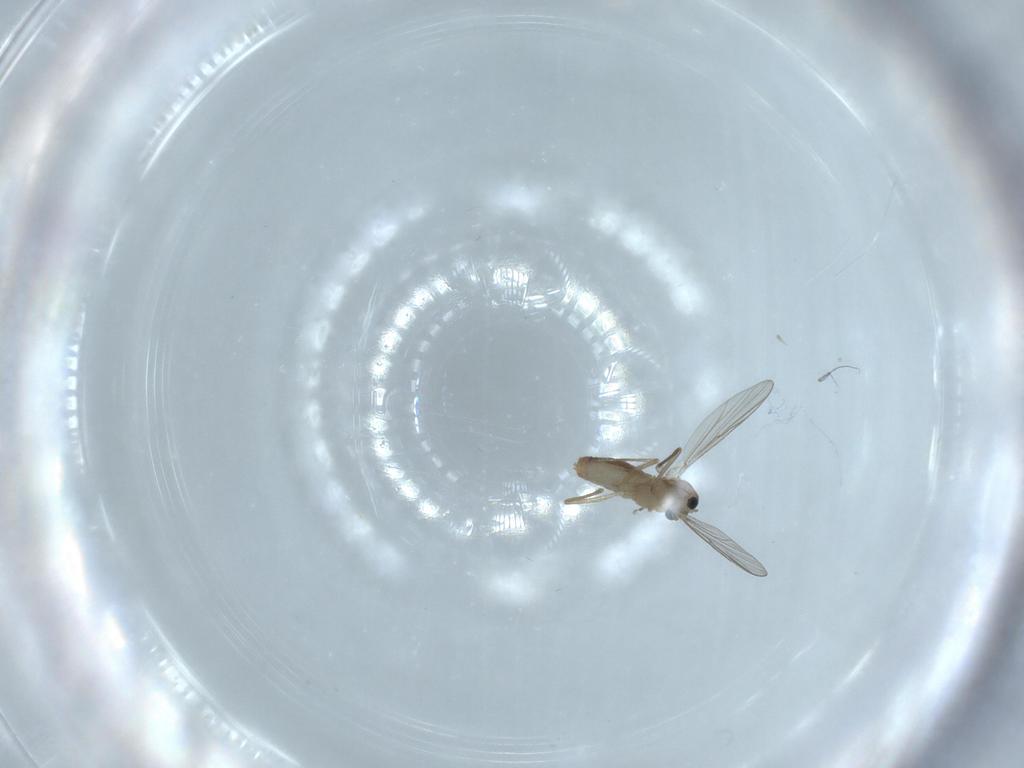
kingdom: Animalia
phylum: Arthropoda
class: Insecta
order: Diptera
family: Chironomidae
